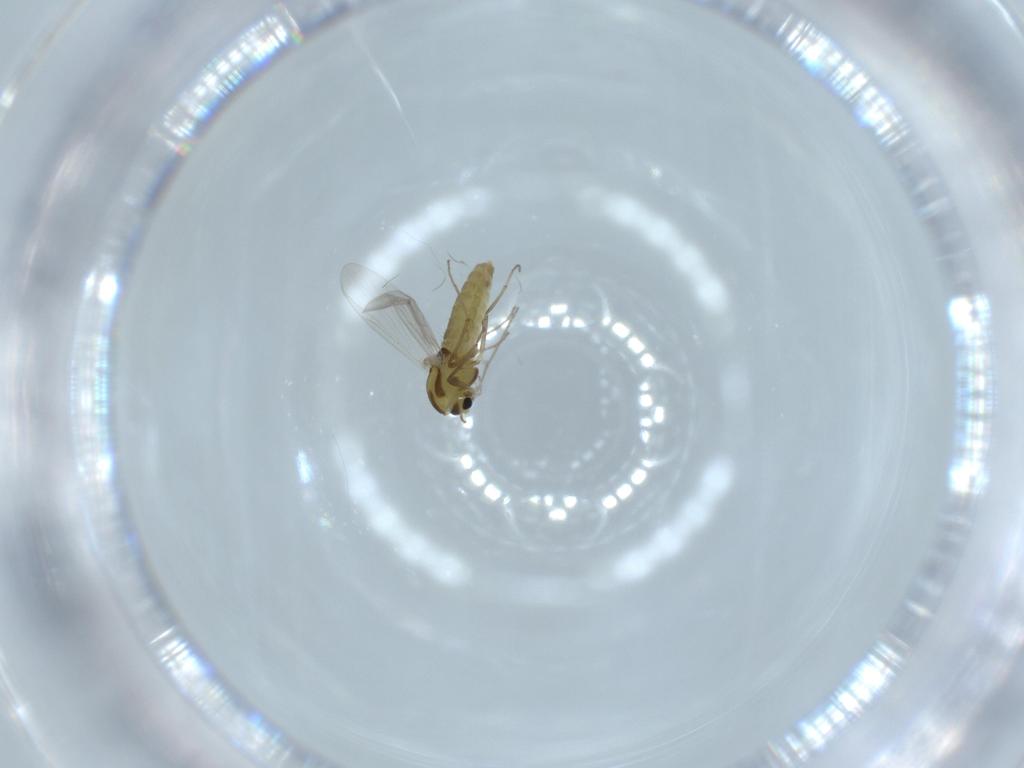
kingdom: Animalia
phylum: Arthropoda
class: Insecta
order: Diptera
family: Chironomidae
